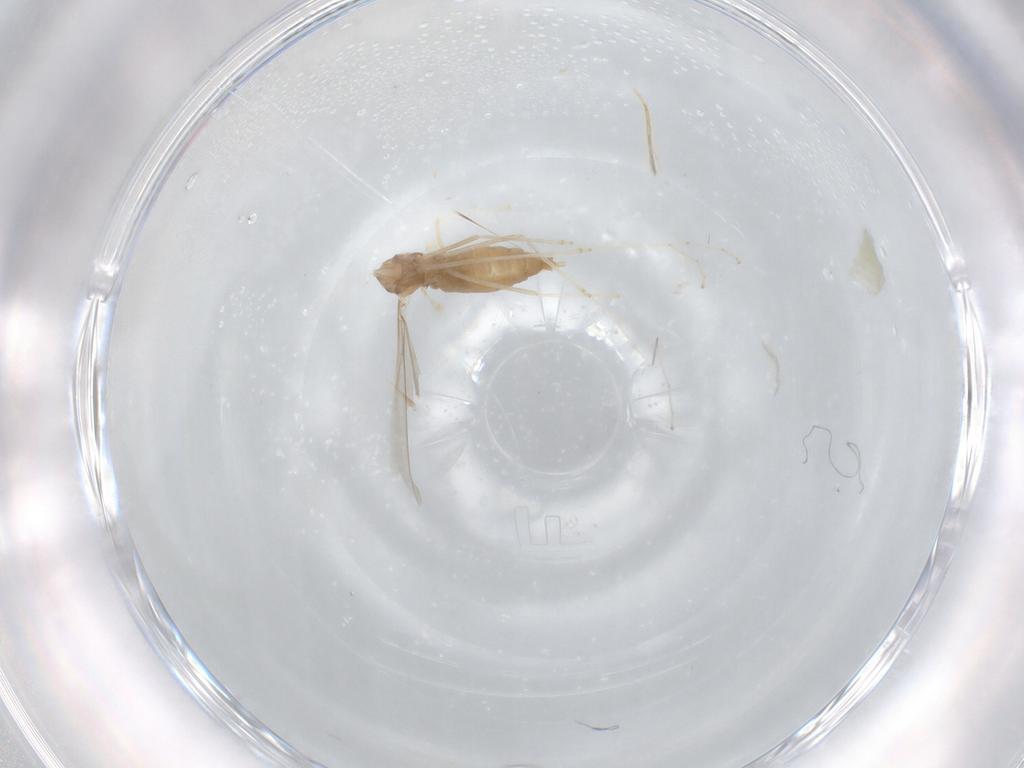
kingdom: Animalia
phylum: Arthropoda
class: Insecta
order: Diptera
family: Cecidomyiidae
